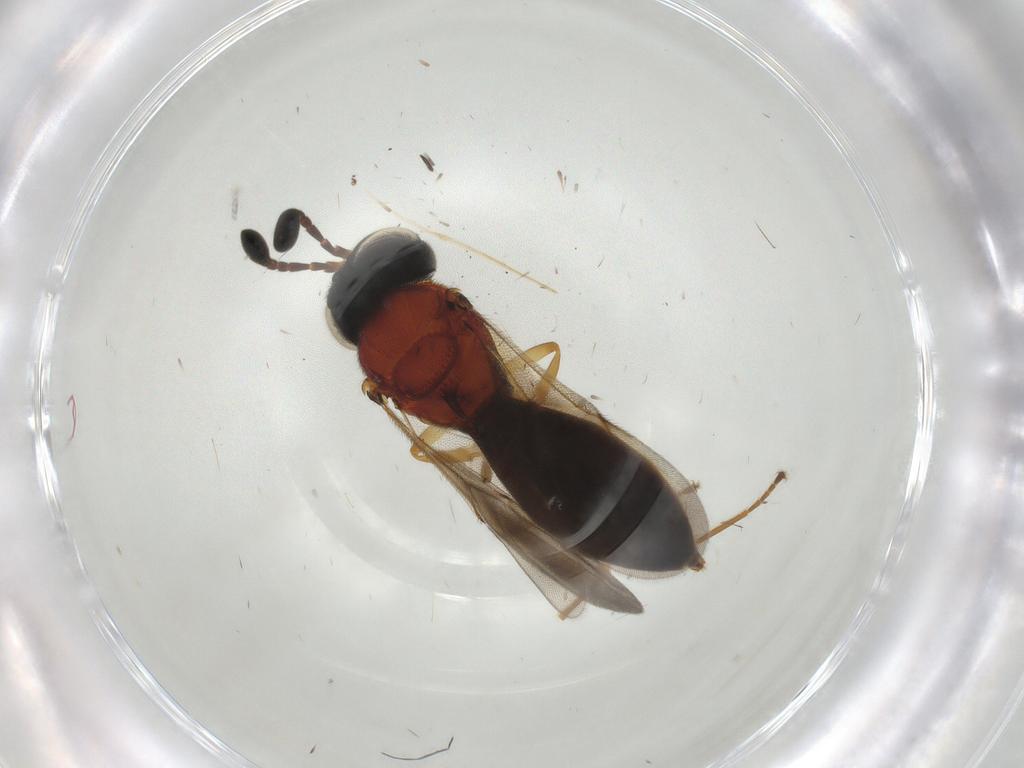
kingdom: Animalia
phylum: Arthropoda
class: Insecta
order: Hymenoptera
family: Formicidae
